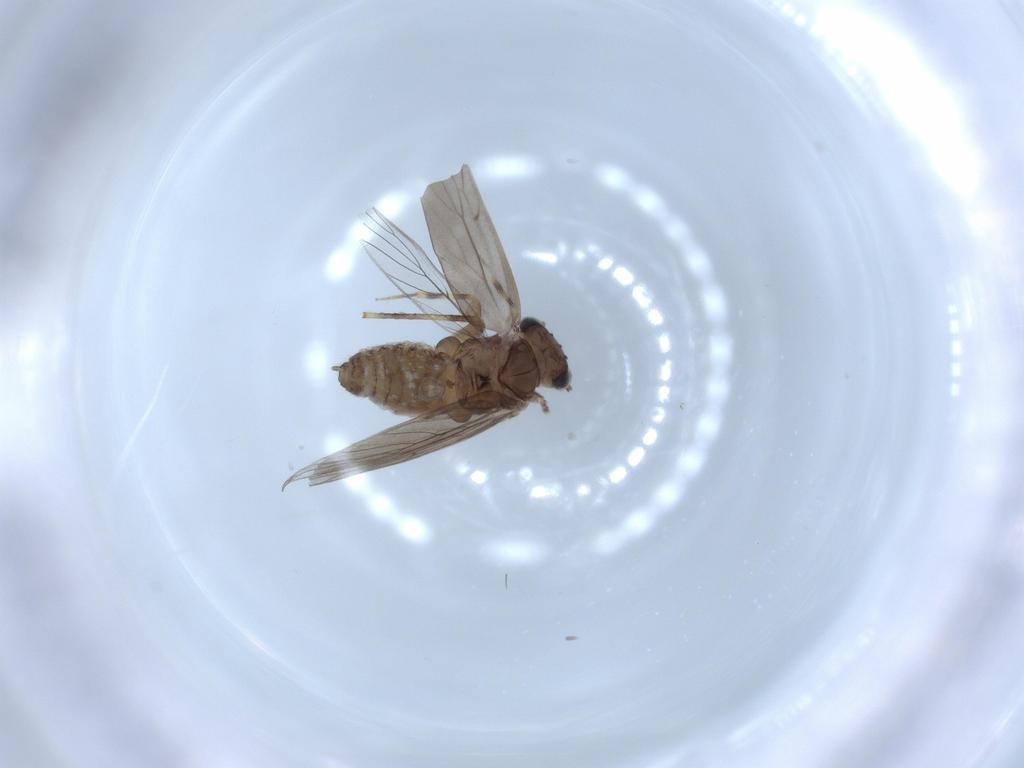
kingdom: Animalia
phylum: Arthropoda
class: Insecta
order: Psocodea
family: Lepidopsocidae
